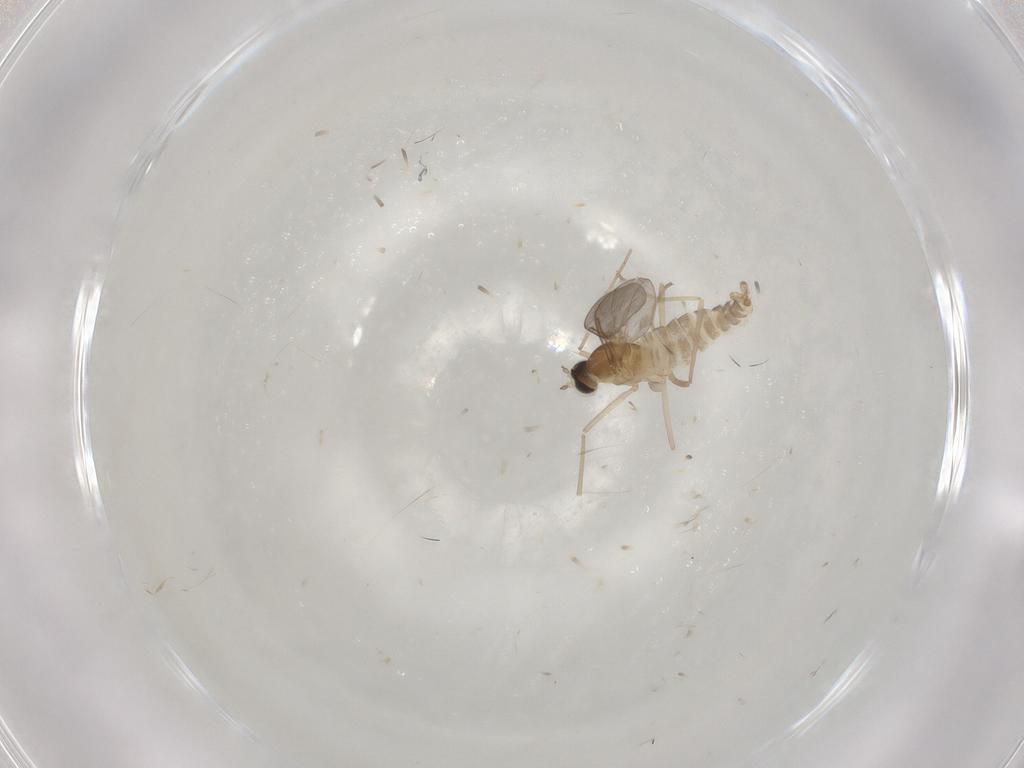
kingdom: Animalia
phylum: Arthropoda
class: Insecta
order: Diptera
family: Cecidomyiidae
